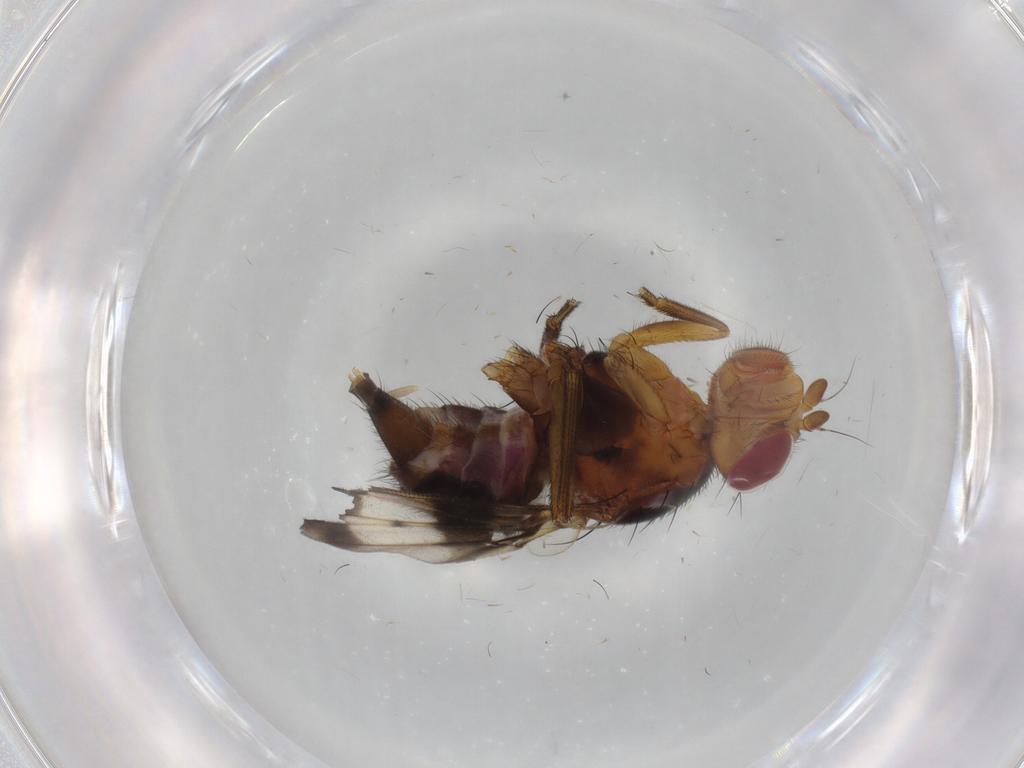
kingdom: Animalia
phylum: Arthropoda
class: Insecta
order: Diptera
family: Richardiidae
